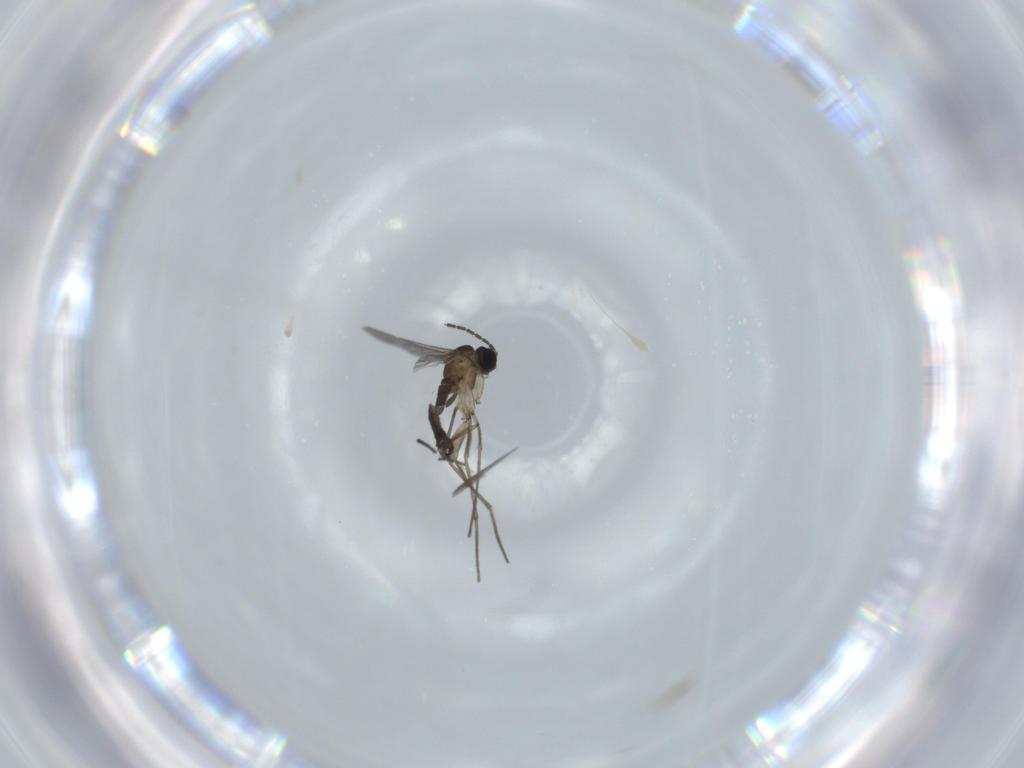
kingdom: Animalia
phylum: Arthropoda
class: Insecta
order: Diptera
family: Sciaridae
